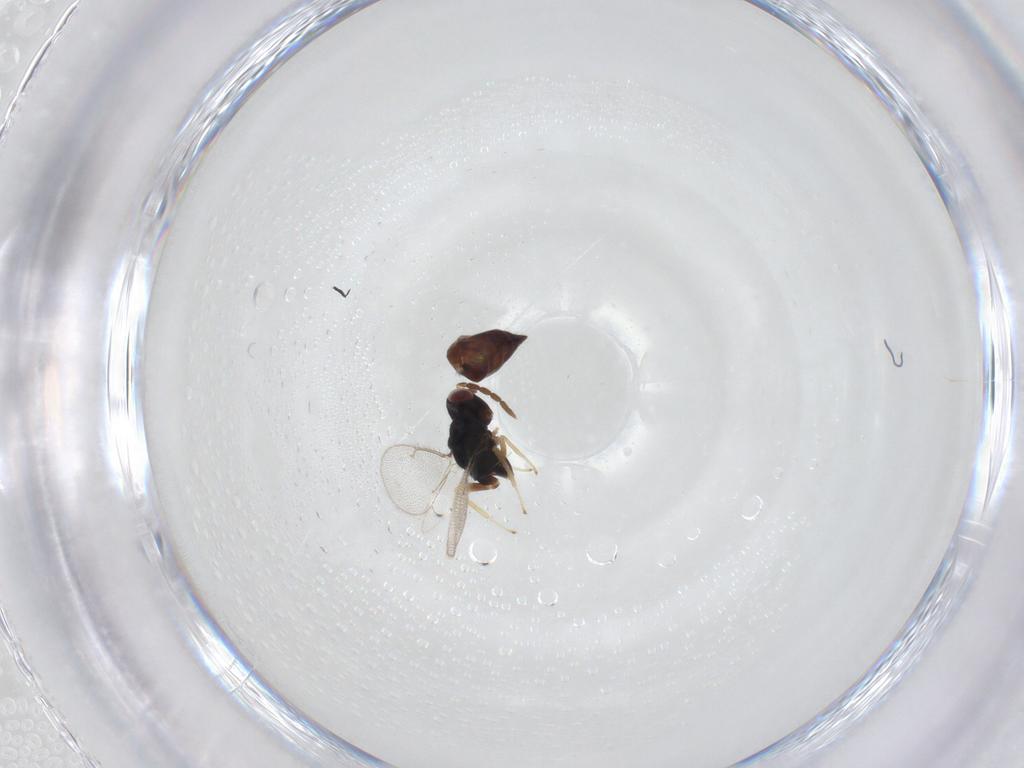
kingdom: Animalia
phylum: Arthropoda
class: Insecta
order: Hymenoptera
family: Eulophidae
